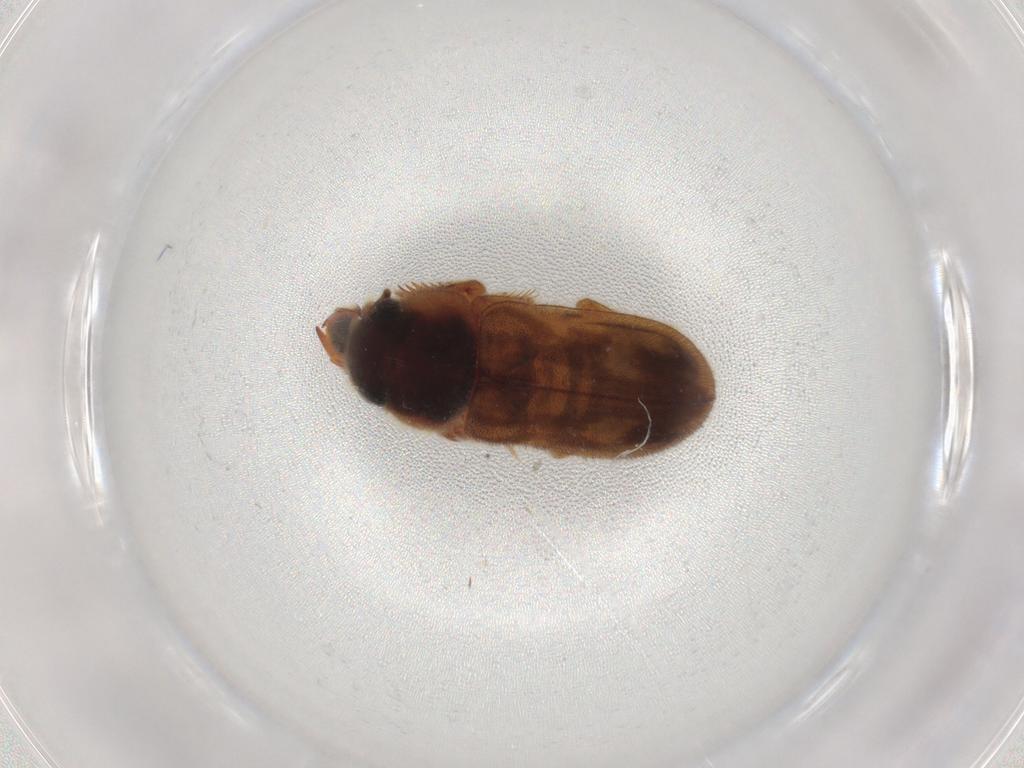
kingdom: Animalia
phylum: Arthropoda
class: Insecta
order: Coleoptera
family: Heteroceridae
